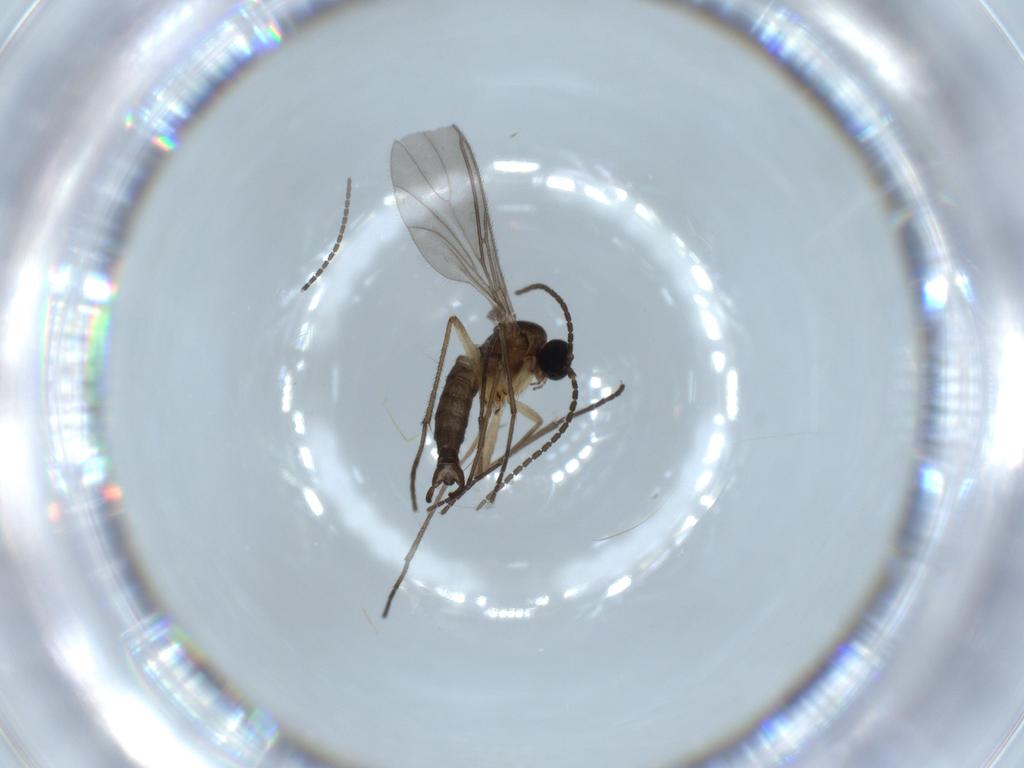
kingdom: Animalia
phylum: Arthropoda
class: Insecta
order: Diptera
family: Sciaridae
